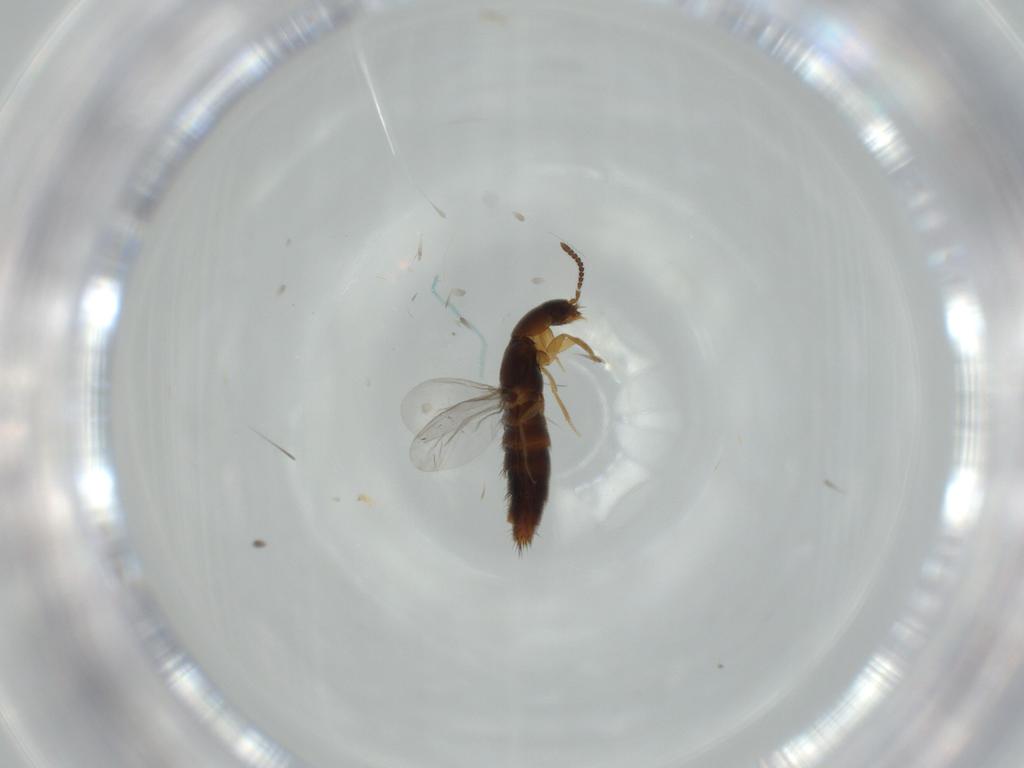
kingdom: Animalia
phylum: Arthropoda
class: Insecta
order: Coleoptera
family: Staphylinidae
